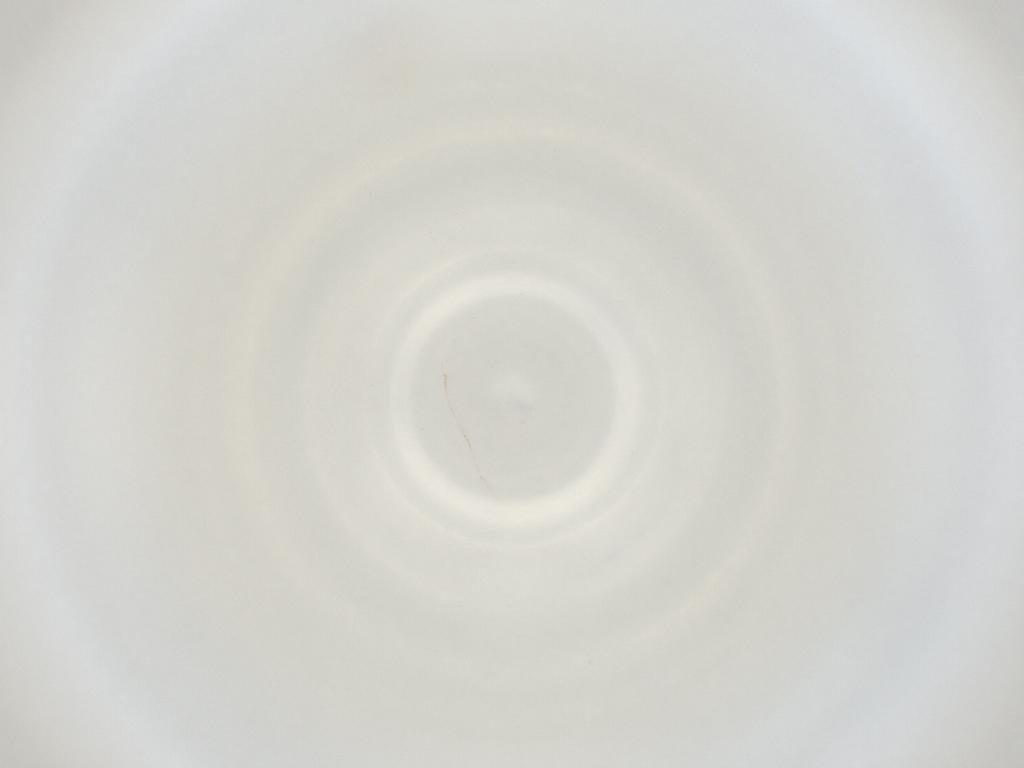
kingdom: Animalia
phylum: Arthropoda
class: Insecta
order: Diptera
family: Cecidomyiidae
